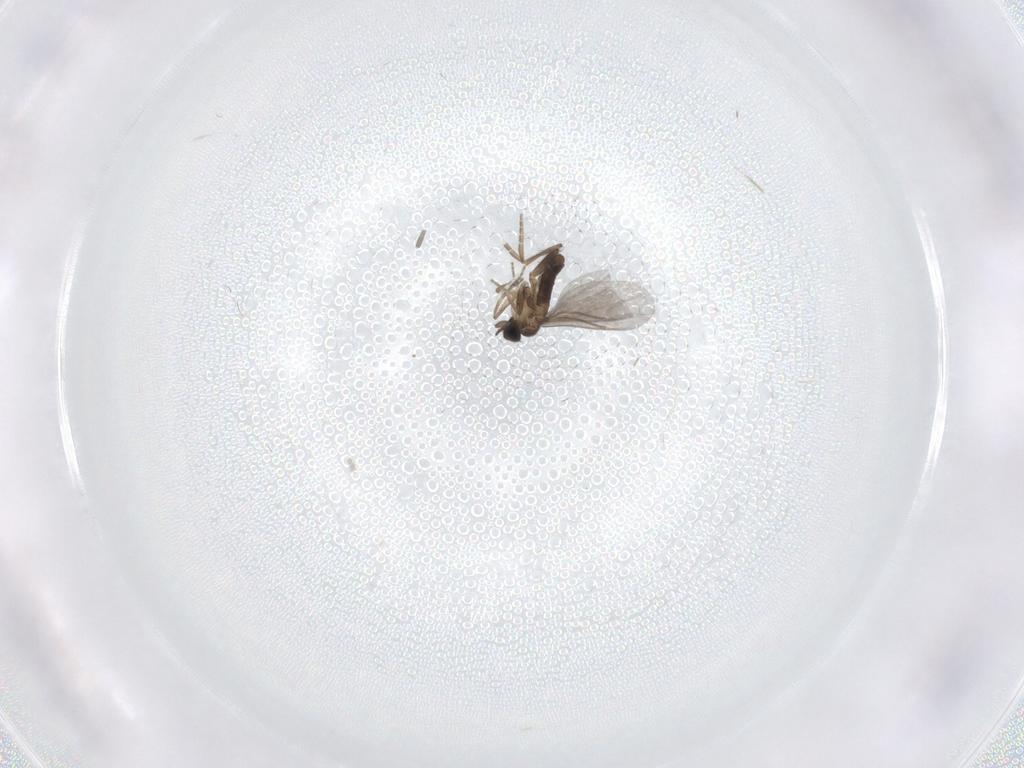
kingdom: Animalia
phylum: Arthropoda
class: Insecta
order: Diptera
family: Cecidomyiidae
